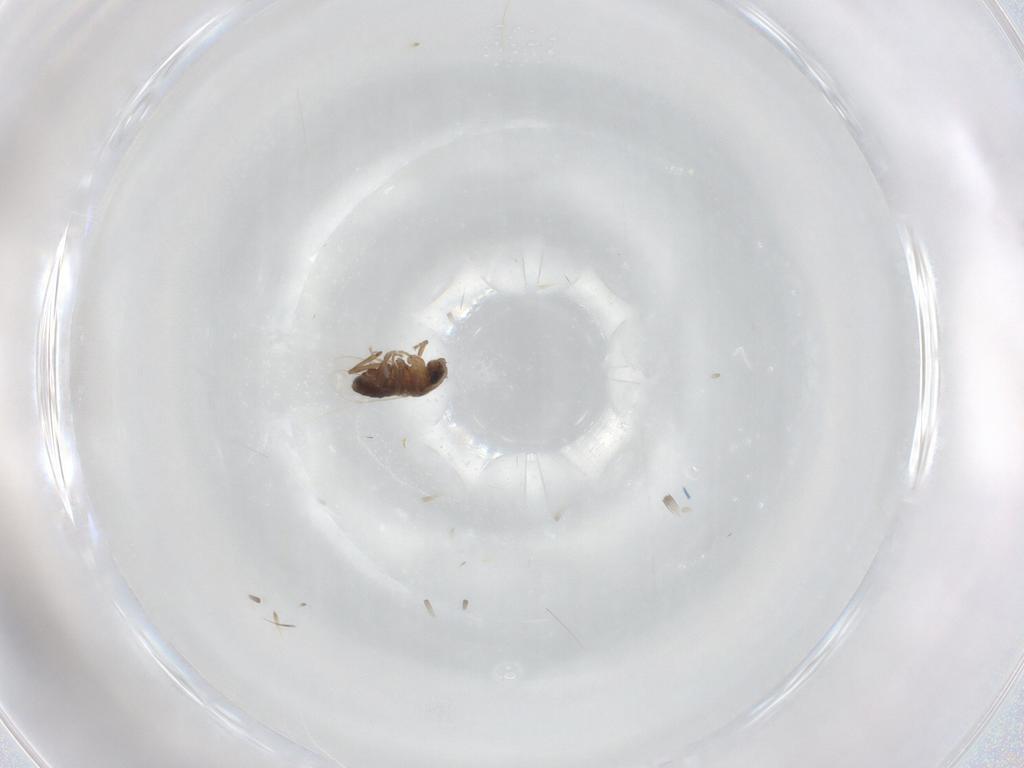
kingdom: Animalia
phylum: Arthropoda
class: Insecta
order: Diptera
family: Phoridae
